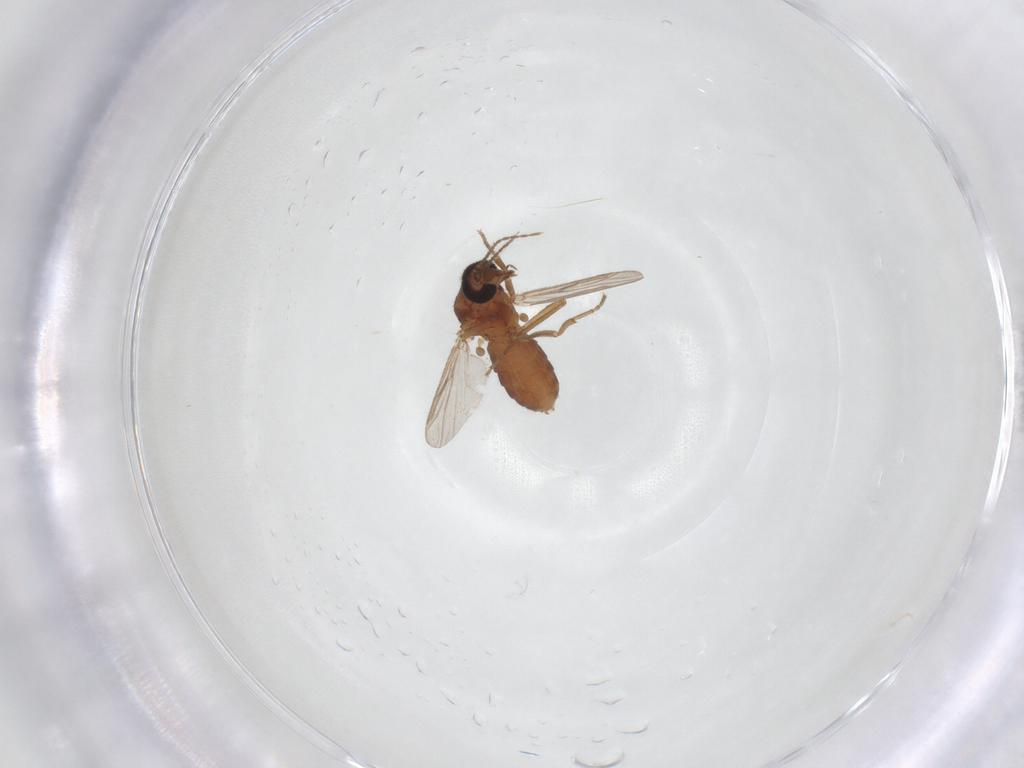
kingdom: Animalia
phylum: Arthropoda
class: Insecta
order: Diptera
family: Ceratopogonidae
